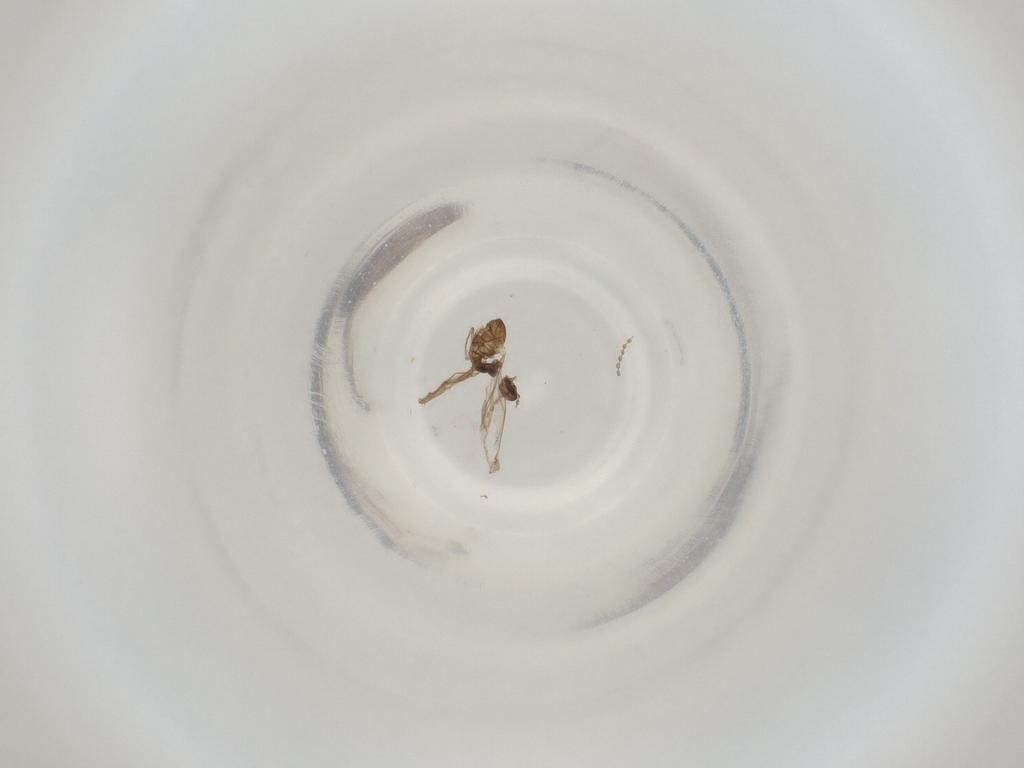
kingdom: Animalia
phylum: Arthropoda
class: Insecta
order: Diptera
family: Cecidomyiidae
